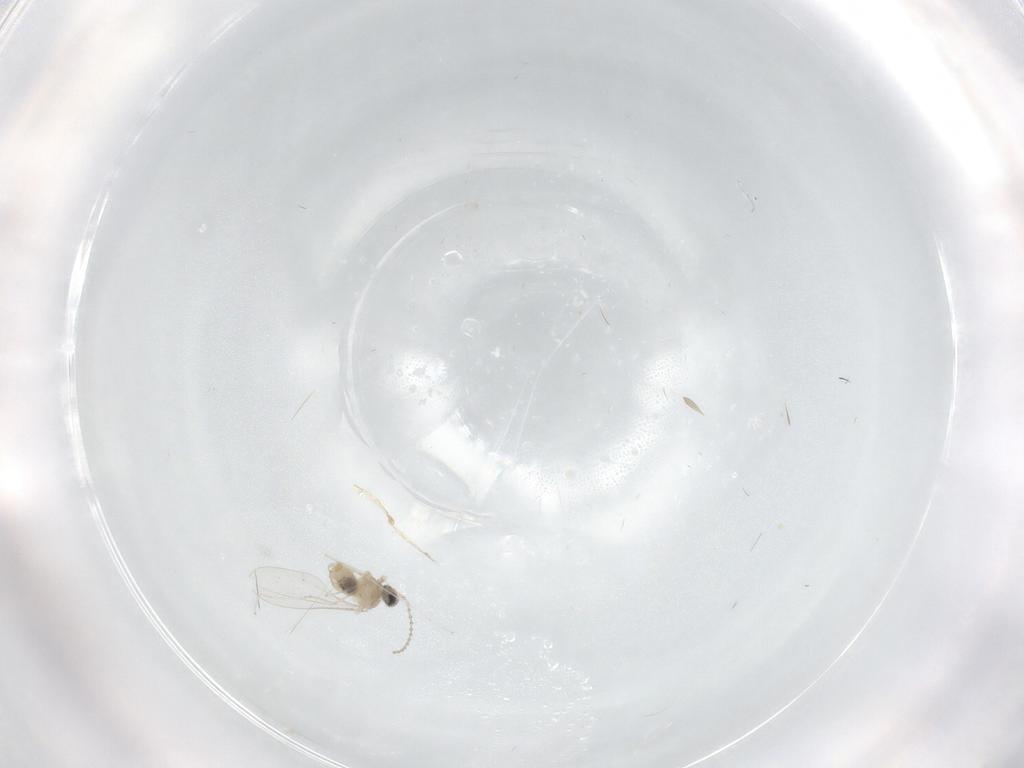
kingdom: Animalia
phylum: Arthropoda
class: Insecta
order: Diptera
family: Cecidomyiidae
